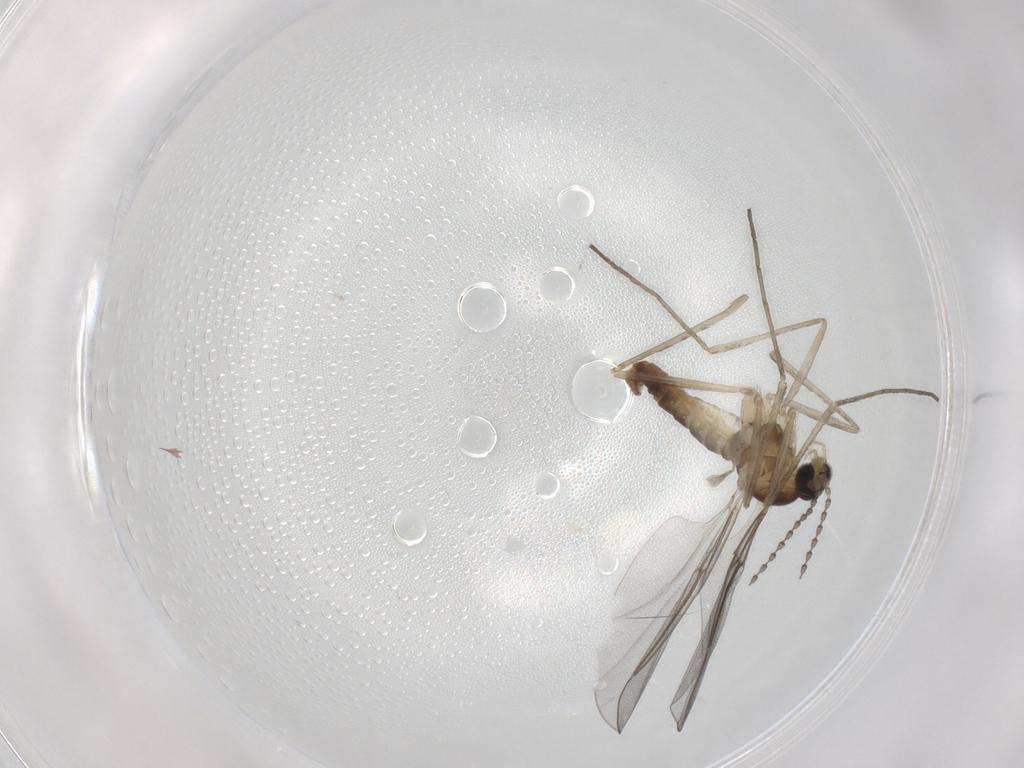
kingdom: Animalia
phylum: Arthropoda
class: Insecta
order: Diptera
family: Cecidomyiidae
